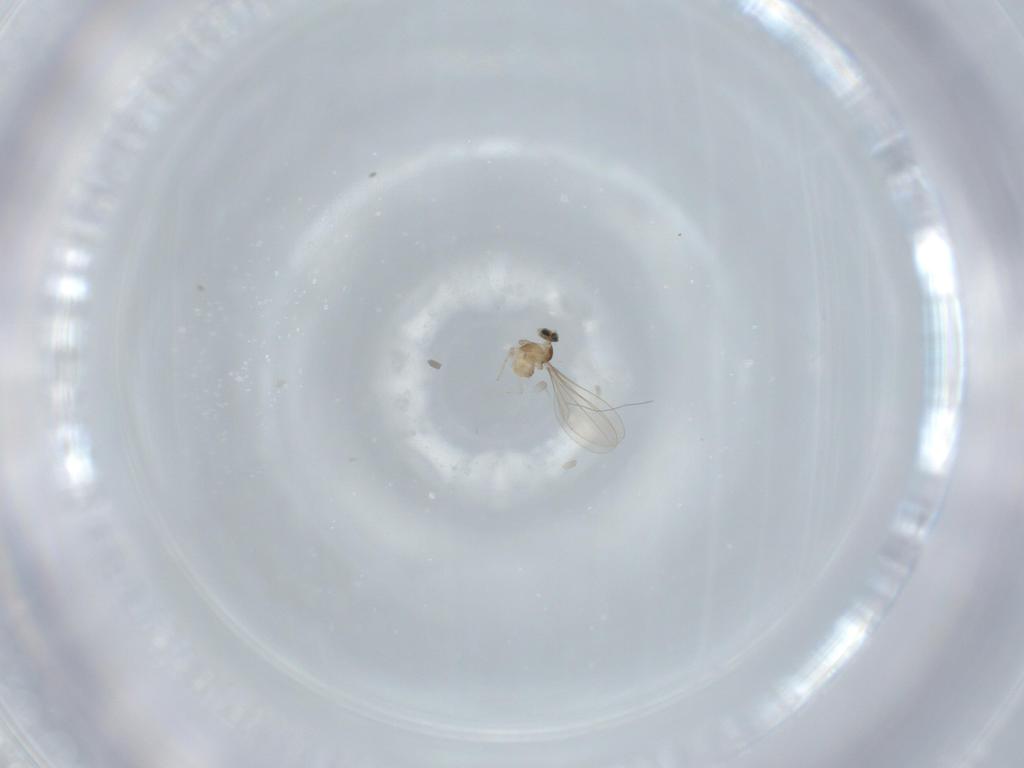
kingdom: Animalia
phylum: Arthropoda
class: Insecta
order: Diptera
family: Cecidomyiidae
